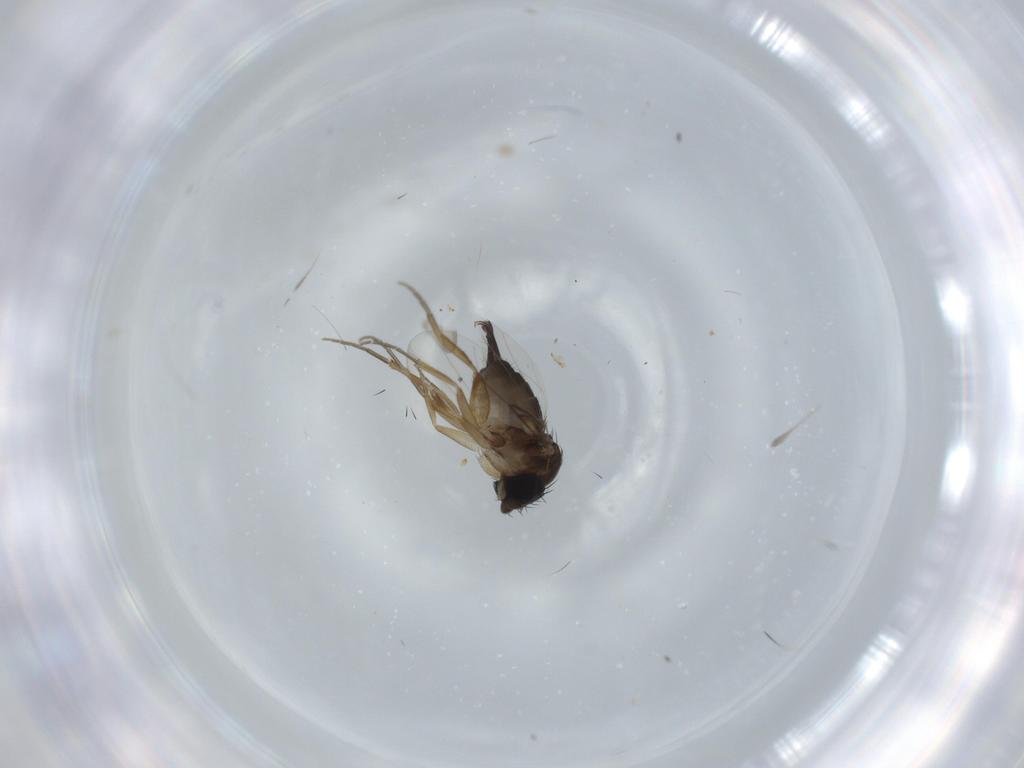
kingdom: Animalia
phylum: Arthropoda
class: Insecta
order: Diptera
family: Phoridae
